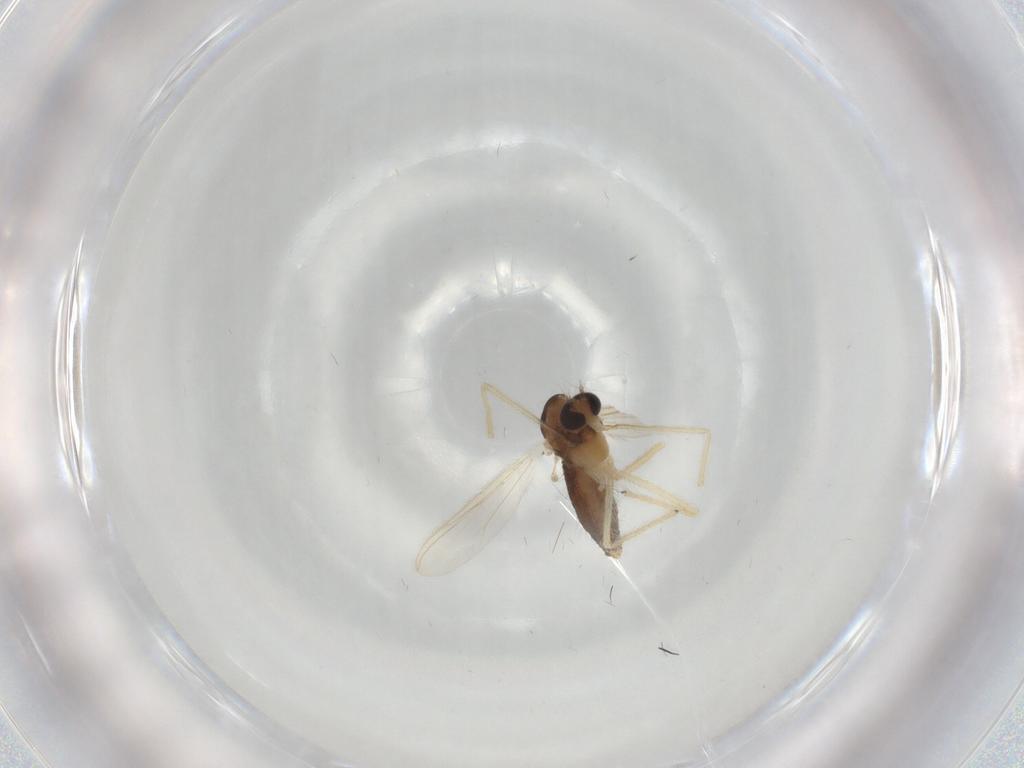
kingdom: Animalia
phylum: Arthropoda
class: Insecta
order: Diptera
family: Chironomidae
